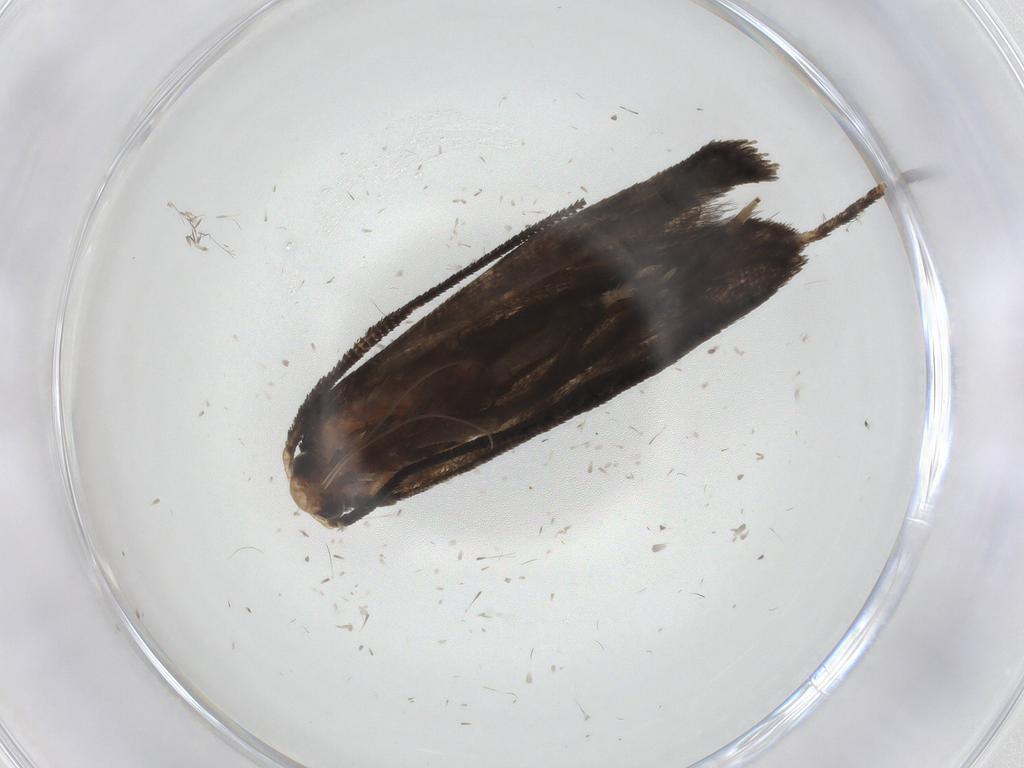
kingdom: Animalia
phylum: Arthropoda
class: Insecta
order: Lepidoptera
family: Choreutidae
